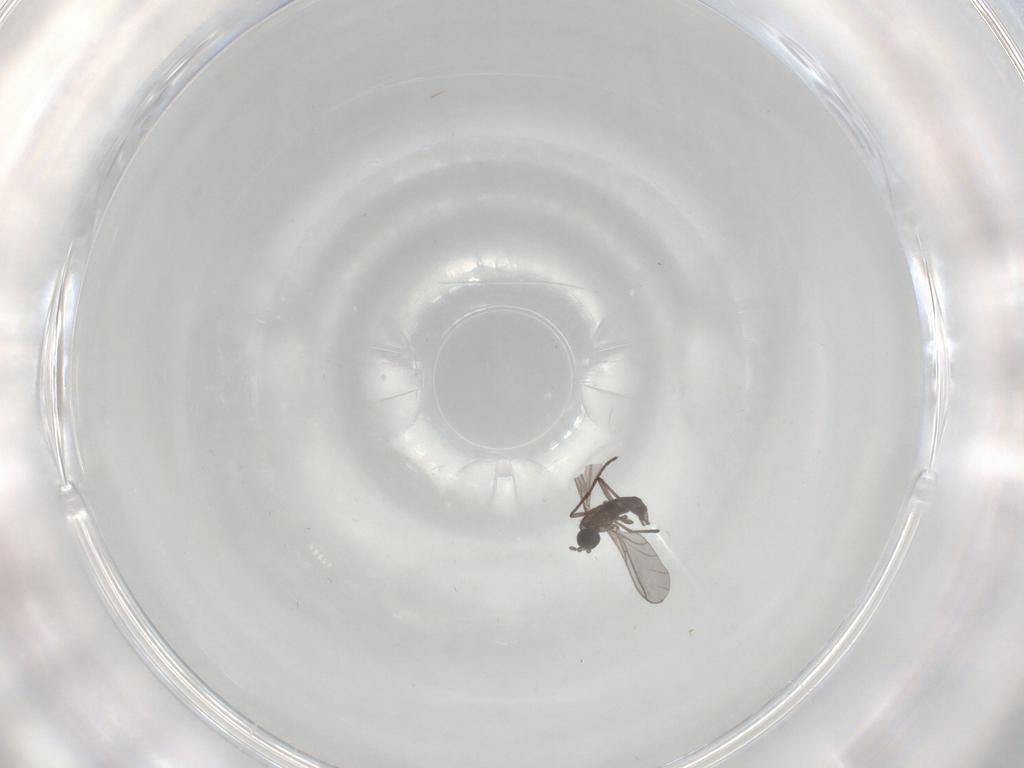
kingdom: Animalia
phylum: Arthropoda
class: Insecta
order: Diptera
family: Sciaridae
